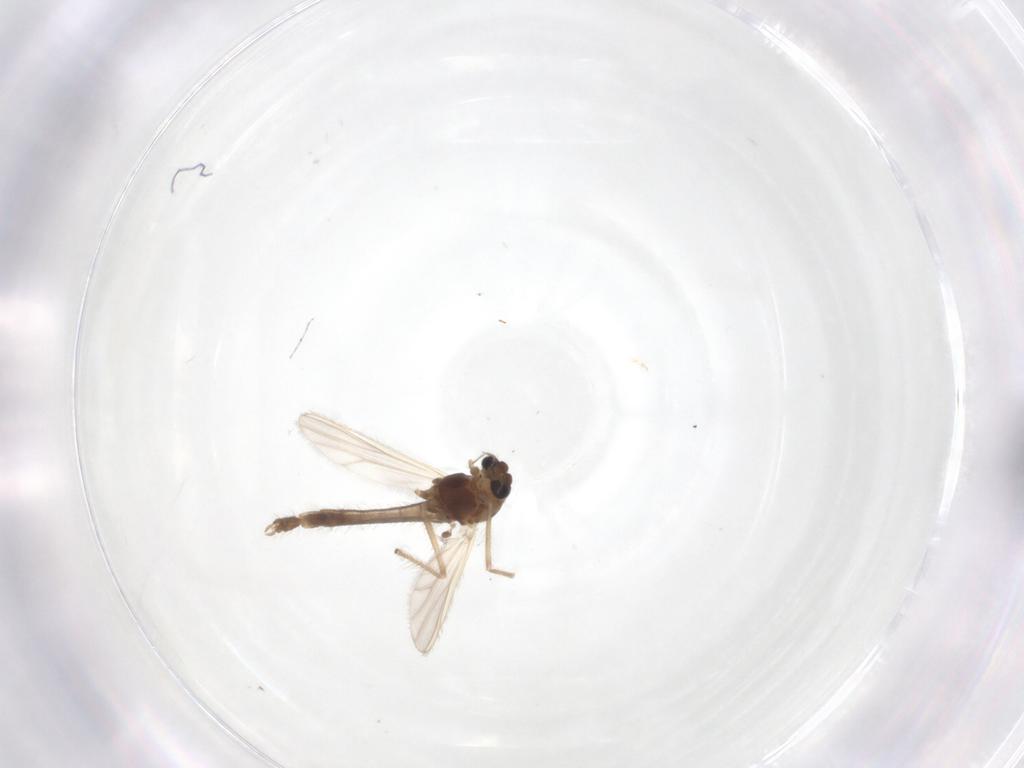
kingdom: Animalia
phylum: Arthropoda
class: Insecta
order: Diptera
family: Chironomidae
